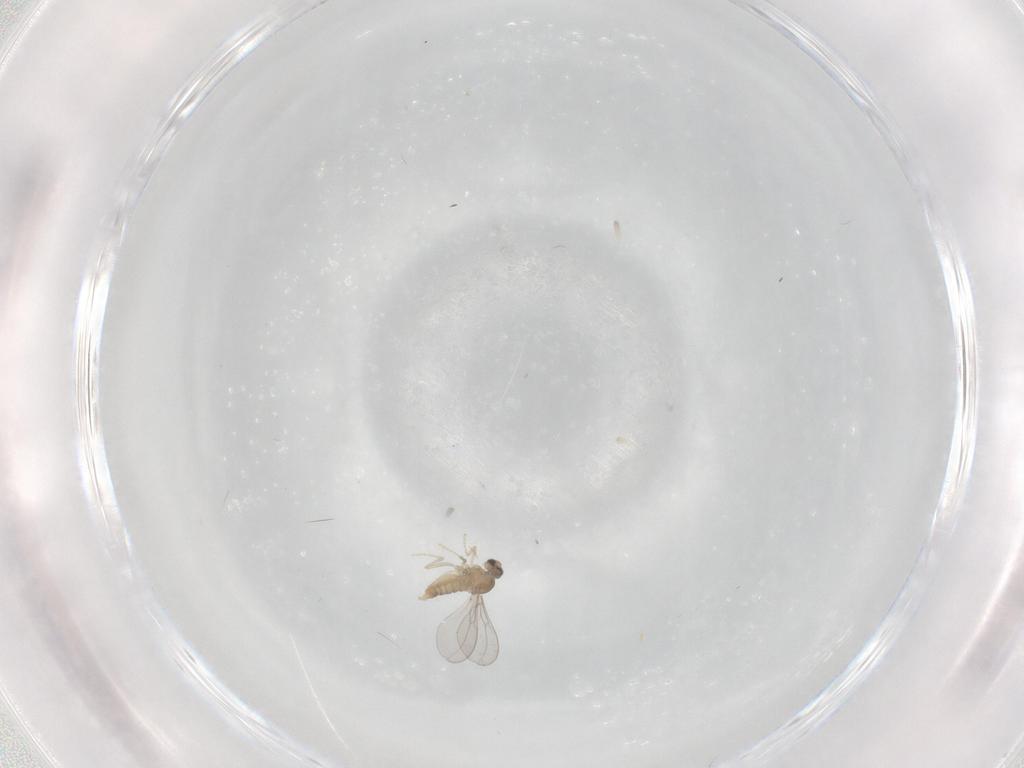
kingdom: Animalia
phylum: Arthropoda
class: Insecta
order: Diptera
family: Cecidomyiidae
